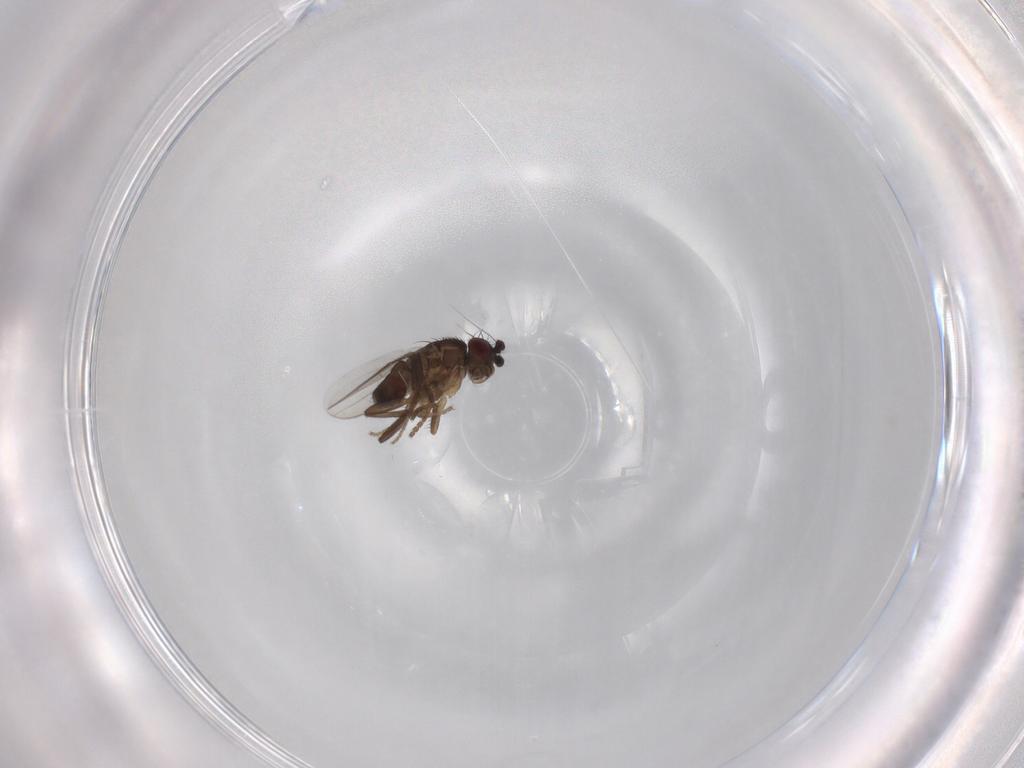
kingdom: Animalia
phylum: Arthropoda
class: Insecta
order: Diptera
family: Sphaeroceridae
